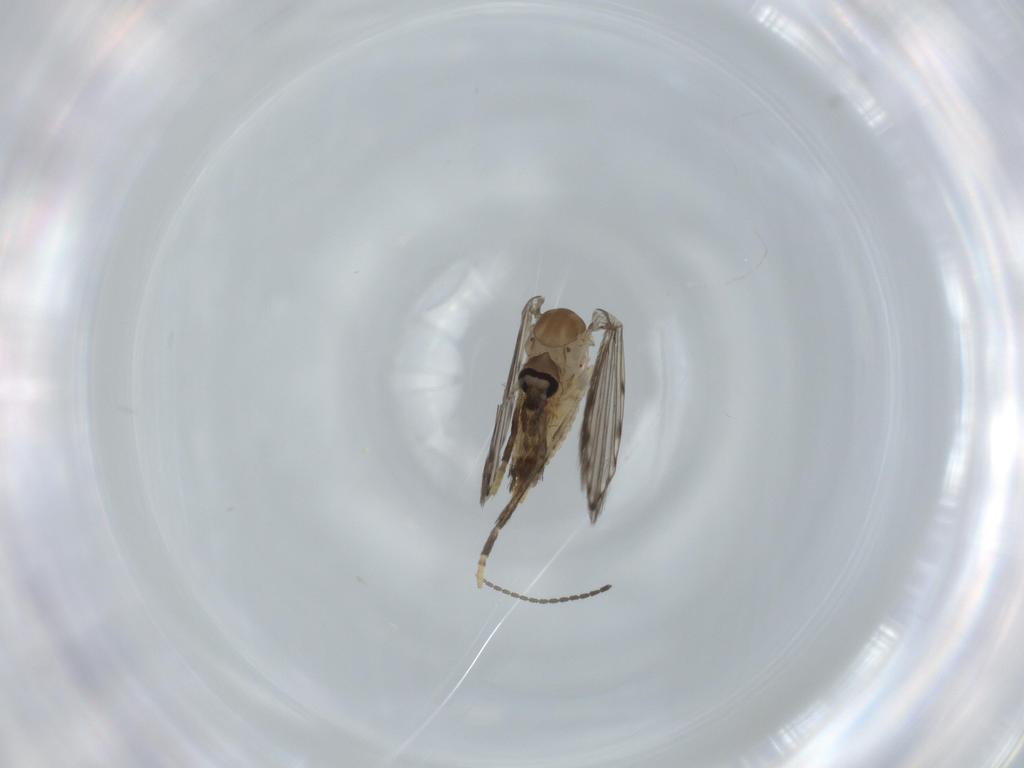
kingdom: Animalia
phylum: Arthropoda
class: Insecta
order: Diptera
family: Psychodidae
